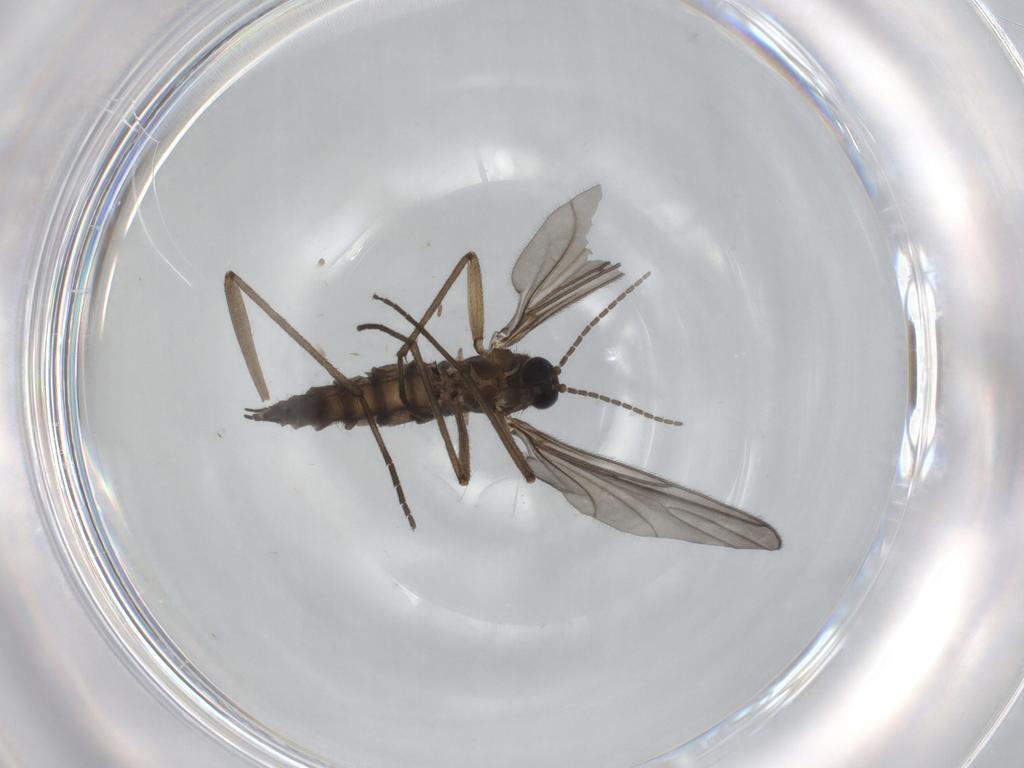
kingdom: Animalia
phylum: Arthropoda
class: Insecta
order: Diptera
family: Sciaridae
